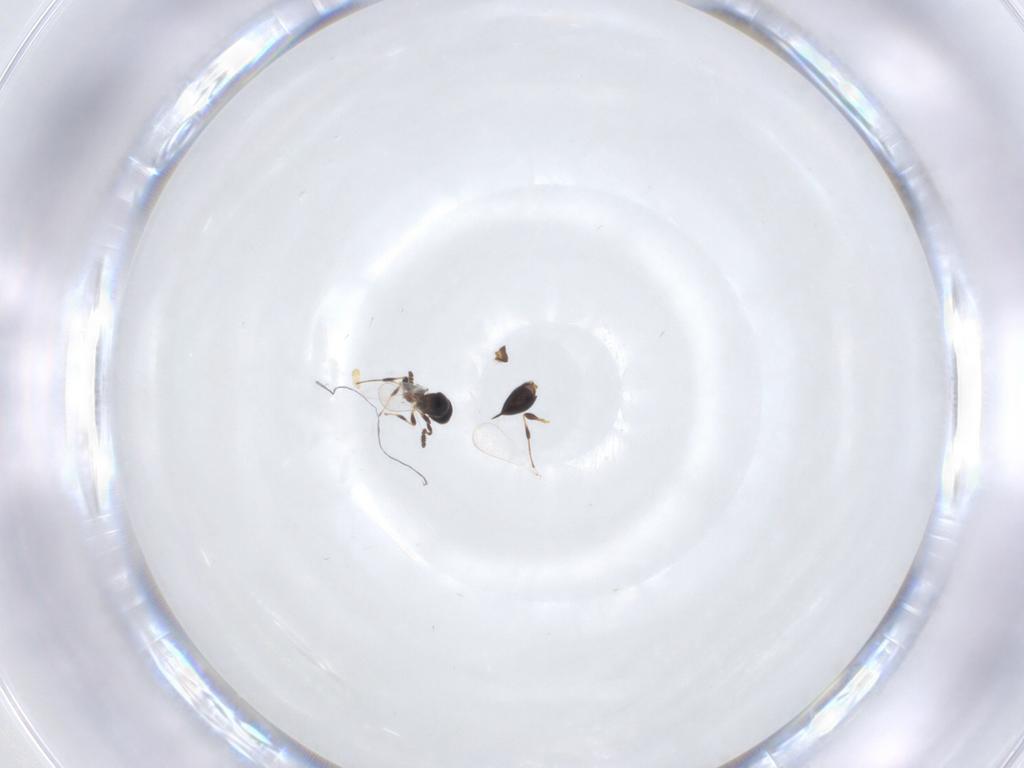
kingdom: Animalia
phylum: Arthropoda
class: Insecta
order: Hymenoptera
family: Platygastridae
